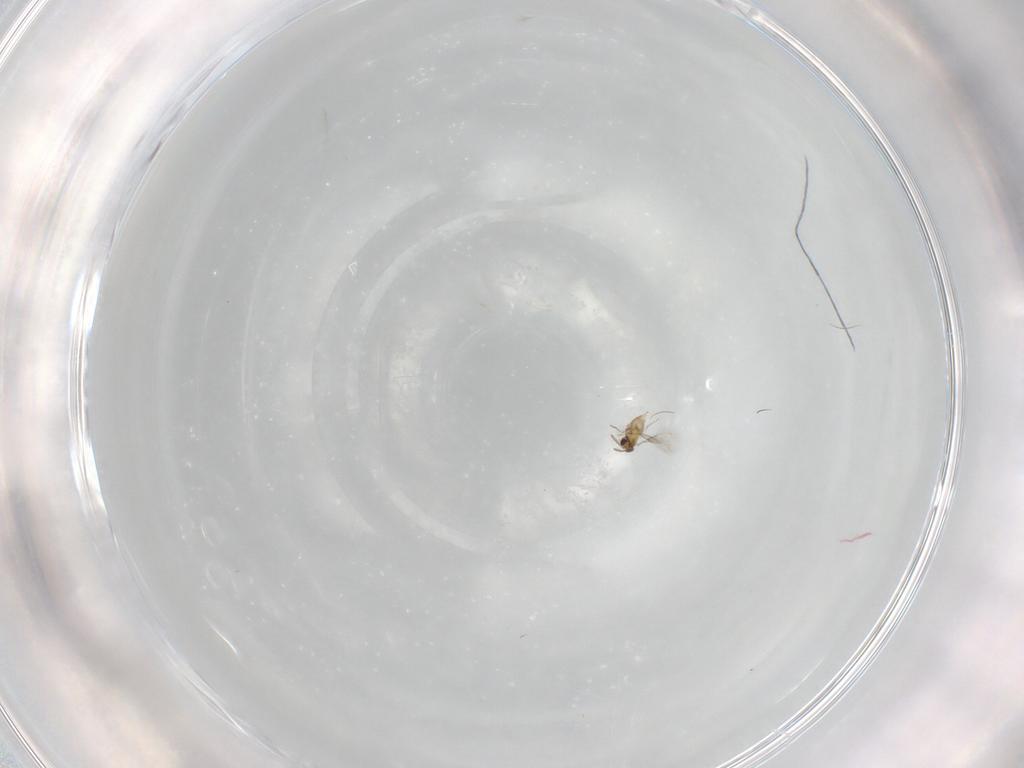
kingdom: Animalia
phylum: Arthropoda
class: Insecta
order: Hymenoptera
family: Aphelinidae
